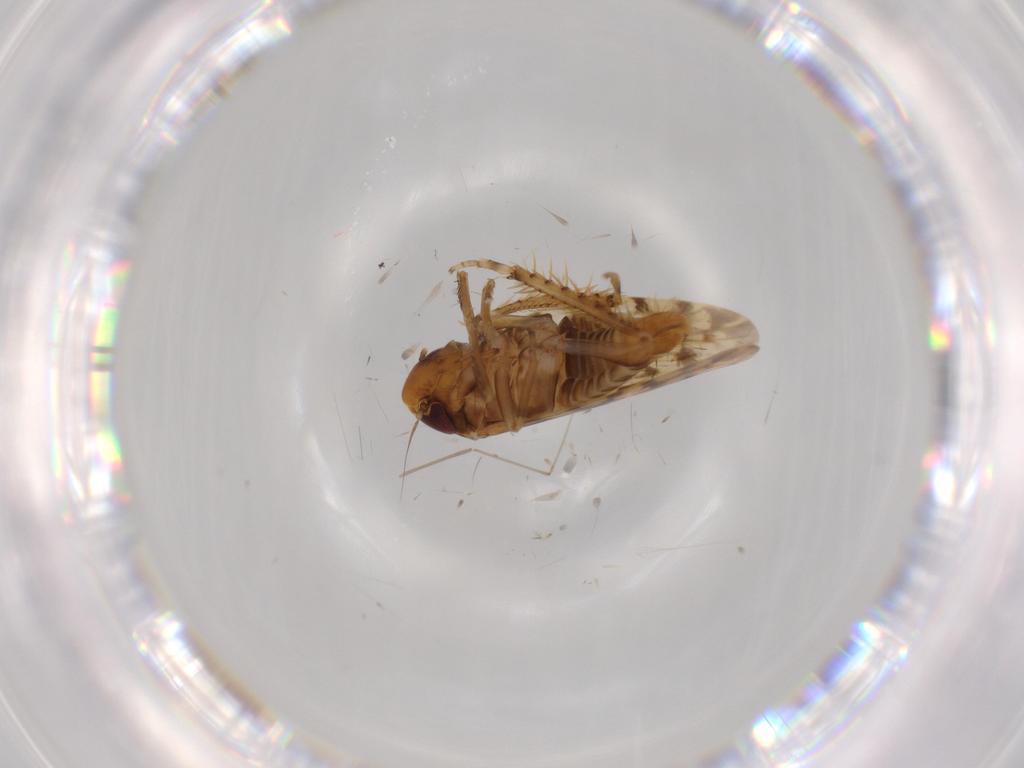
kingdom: Animalia
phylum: Arthropoda
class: Insecta
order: Hemiptera
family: Cicadellidae
